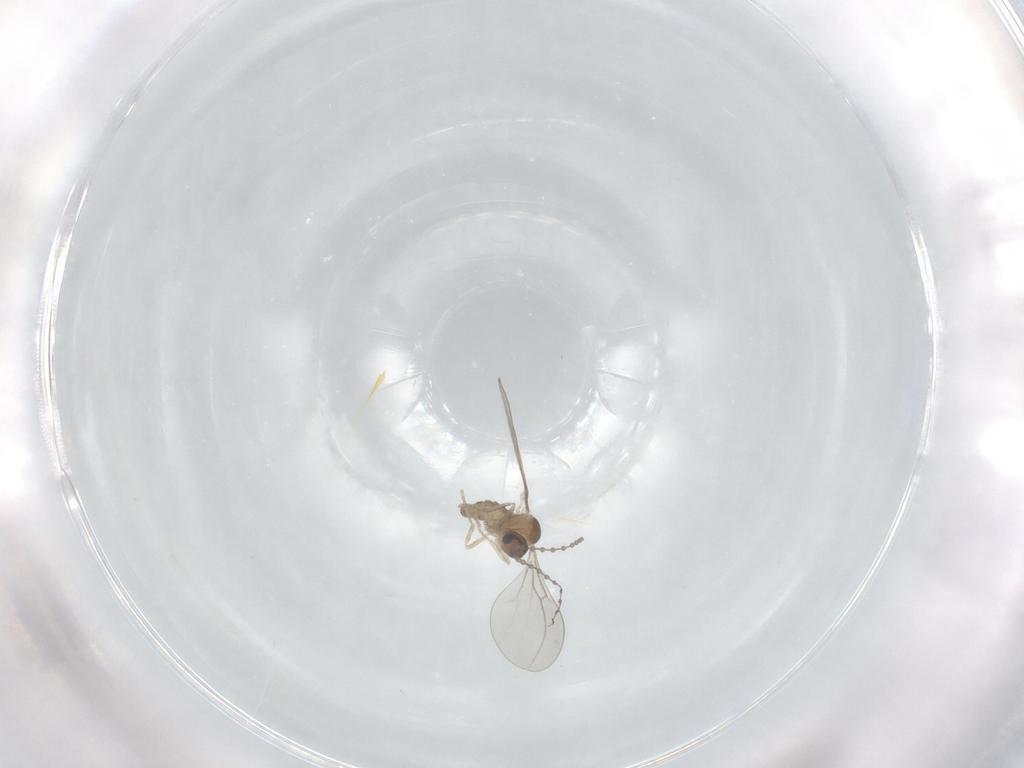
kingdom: Animalia
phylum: Arthropoda
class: Insecta
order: Diptera
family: Cecidomyiidae
